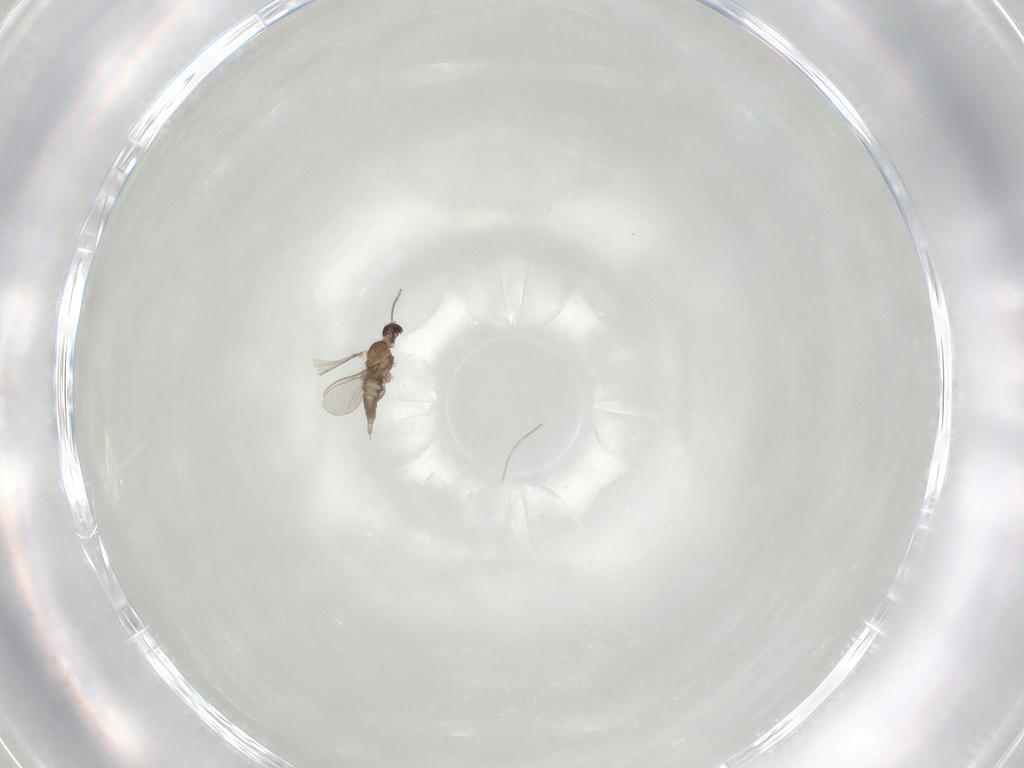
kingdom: Animalia
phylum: Arthropoda
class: Insecta
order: Diptera
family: Cecidomyiidae
